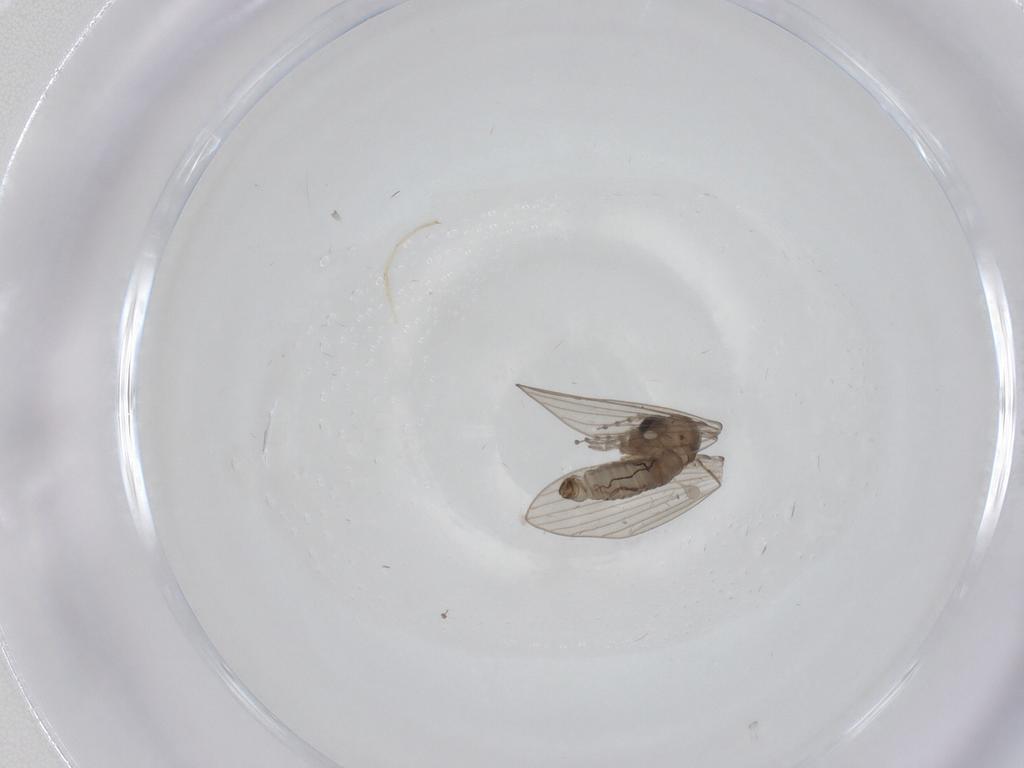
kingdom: Animalia
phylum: Arthropoda
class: Insecta
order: Diptera
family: Psychodidae
